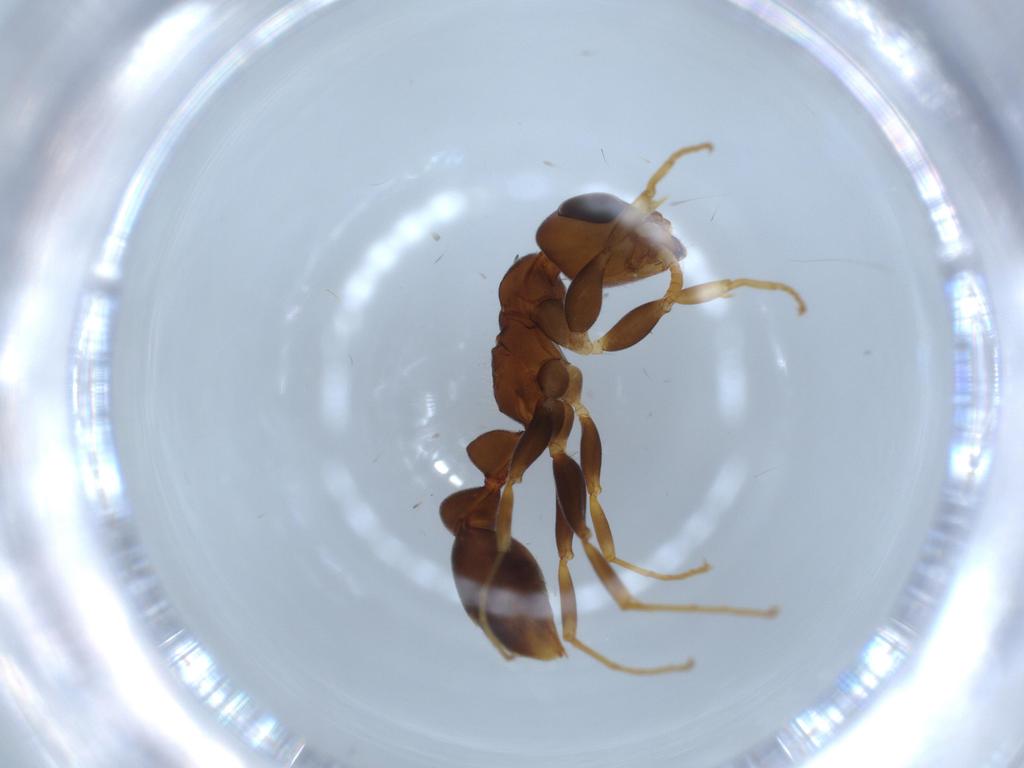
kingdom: Animalia
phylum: Arthropoda
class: Insecta
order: Hymenoptera
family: Formicidae
